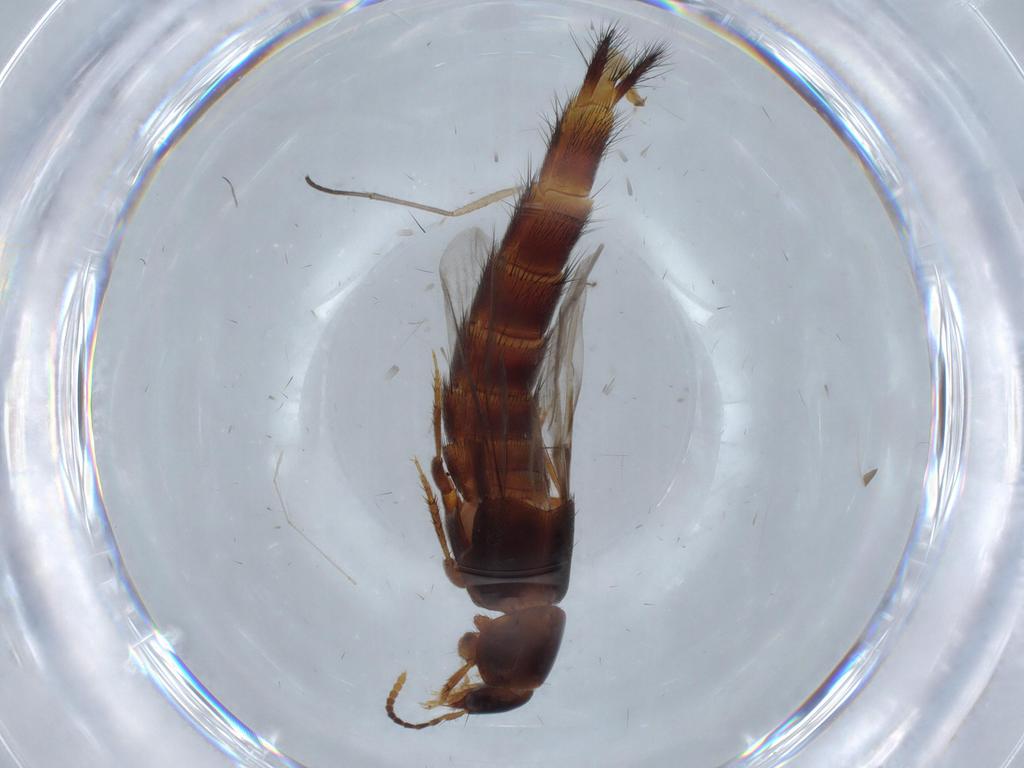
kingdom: Animalia
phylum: Arthropoda
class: Insecta
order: Coleoptera
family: Staphylinidae
